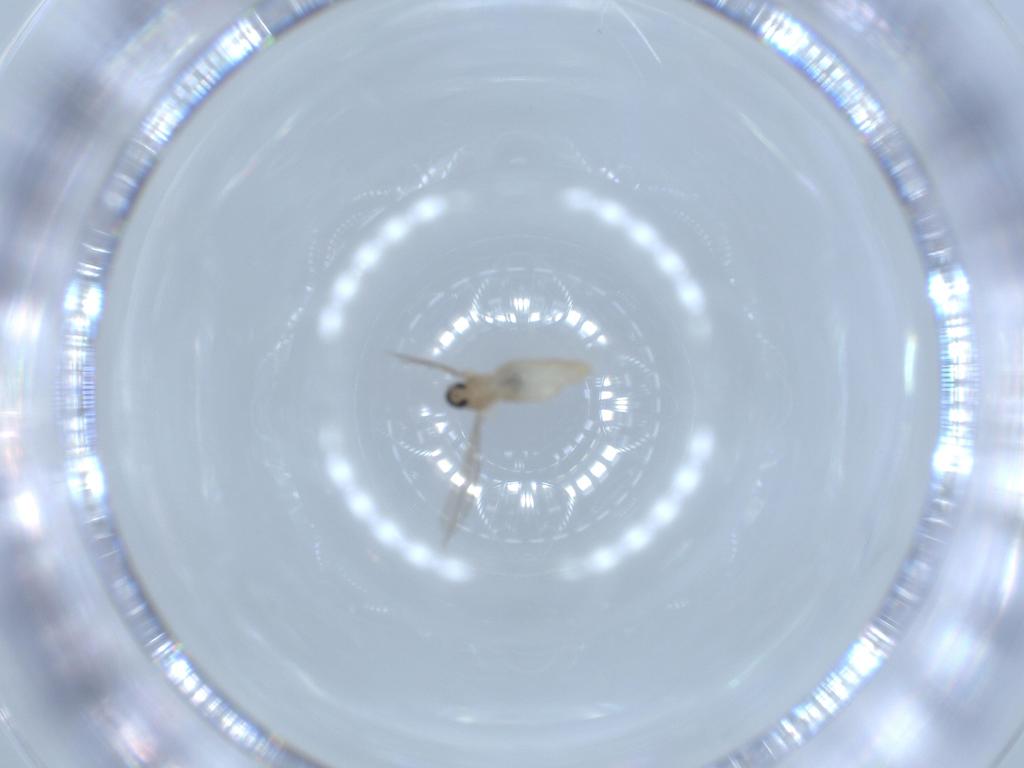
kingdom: Animalia
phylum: Arthropoda
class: Insecta
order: Diptera
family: Cecidomyiidae
